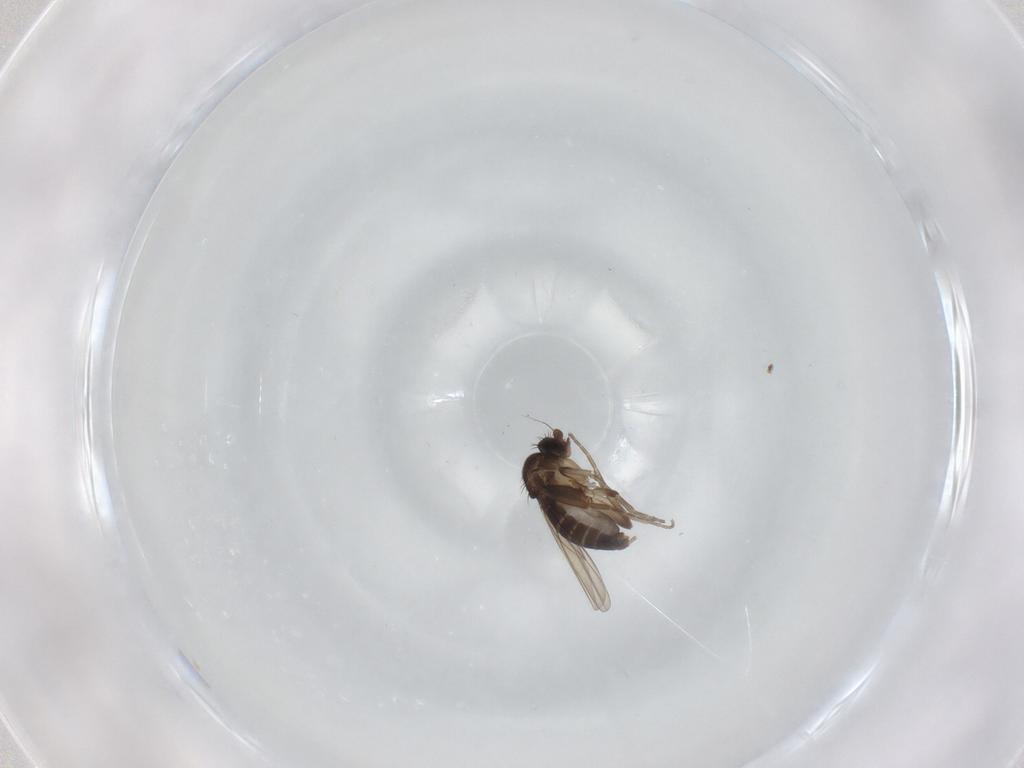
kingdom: Animalia
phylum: Arthropoda
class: Insecta
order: Diptera
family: Phoridae
